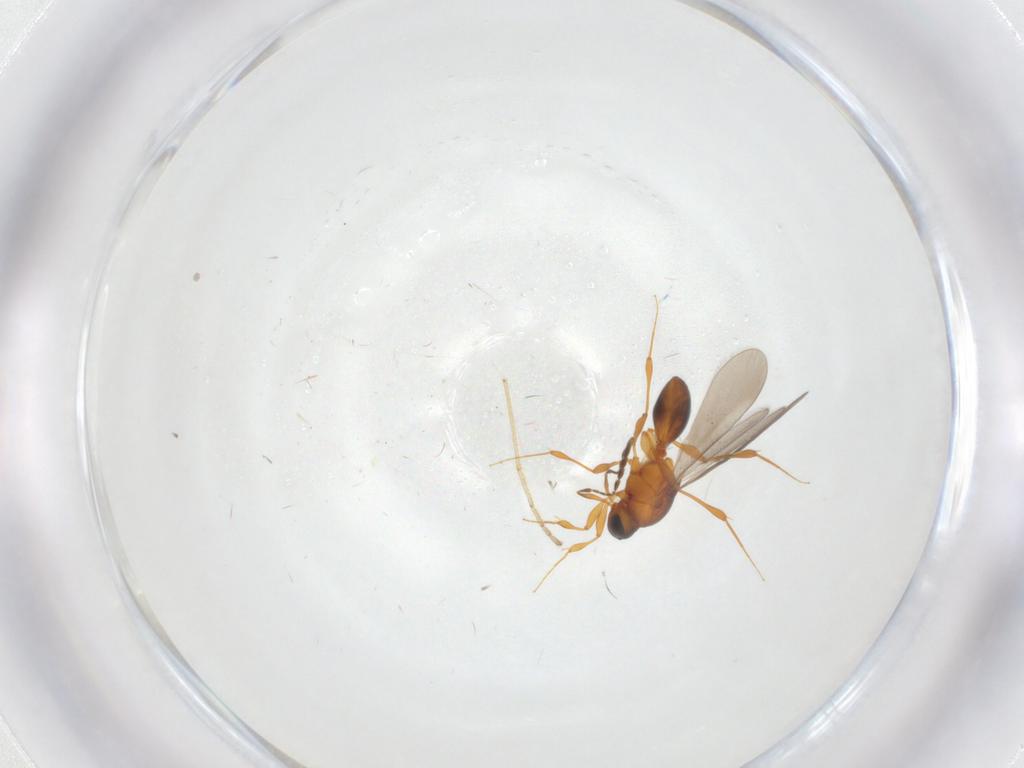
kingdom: Animalia
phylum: Arthropoda
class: Insecta
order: Hymenoptera
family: Platygastridae
